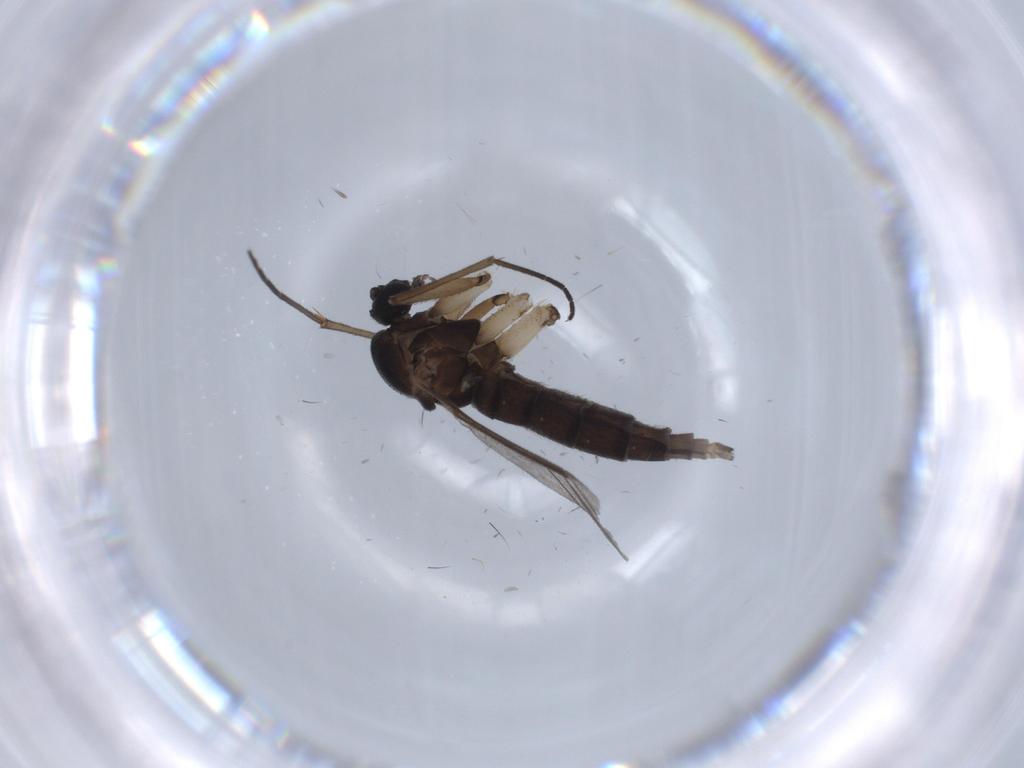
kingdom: Animalia
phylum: Arthropoda
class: Insecta
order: Diptera
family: Sciaridae
